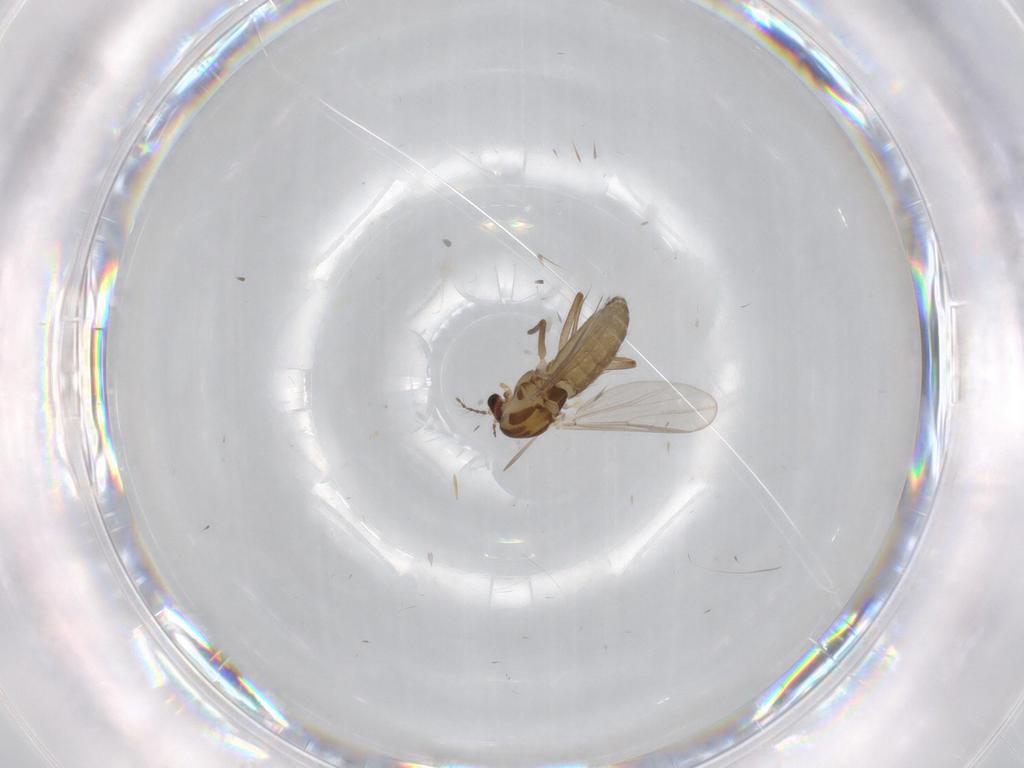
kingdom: Animalia
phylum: Arthropoda
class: Insecta
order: Diptera
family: Chironomidae
